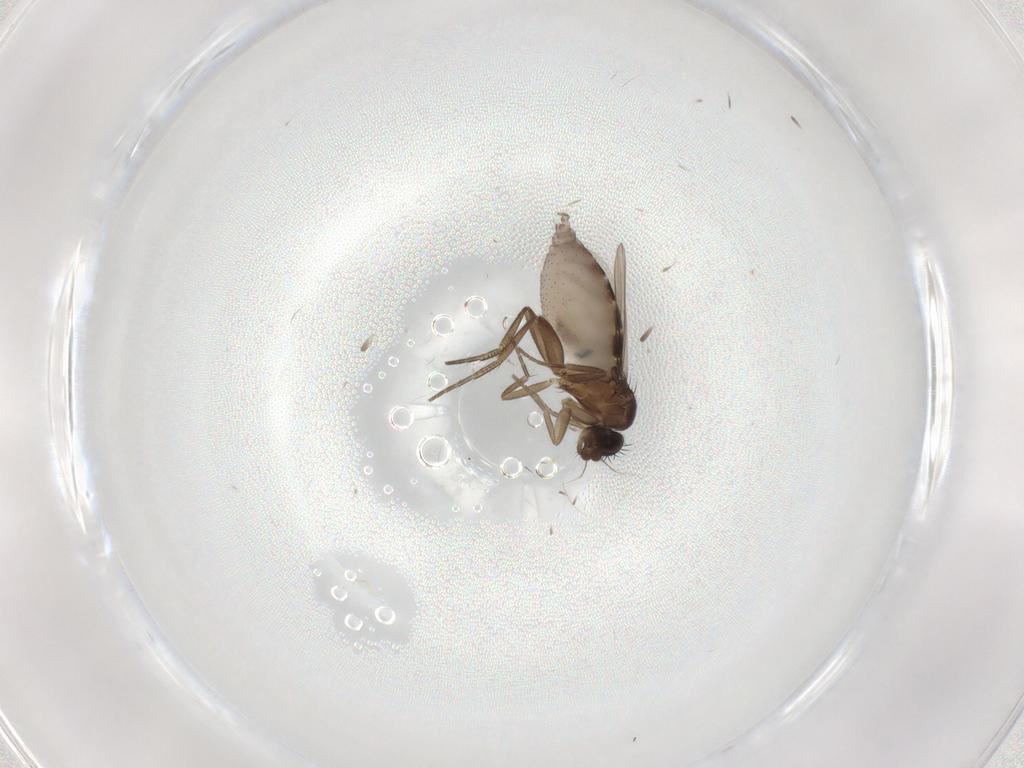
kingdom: Animalia
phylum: Arthropoda
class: Insecta
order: Diptera
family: Phoridae
